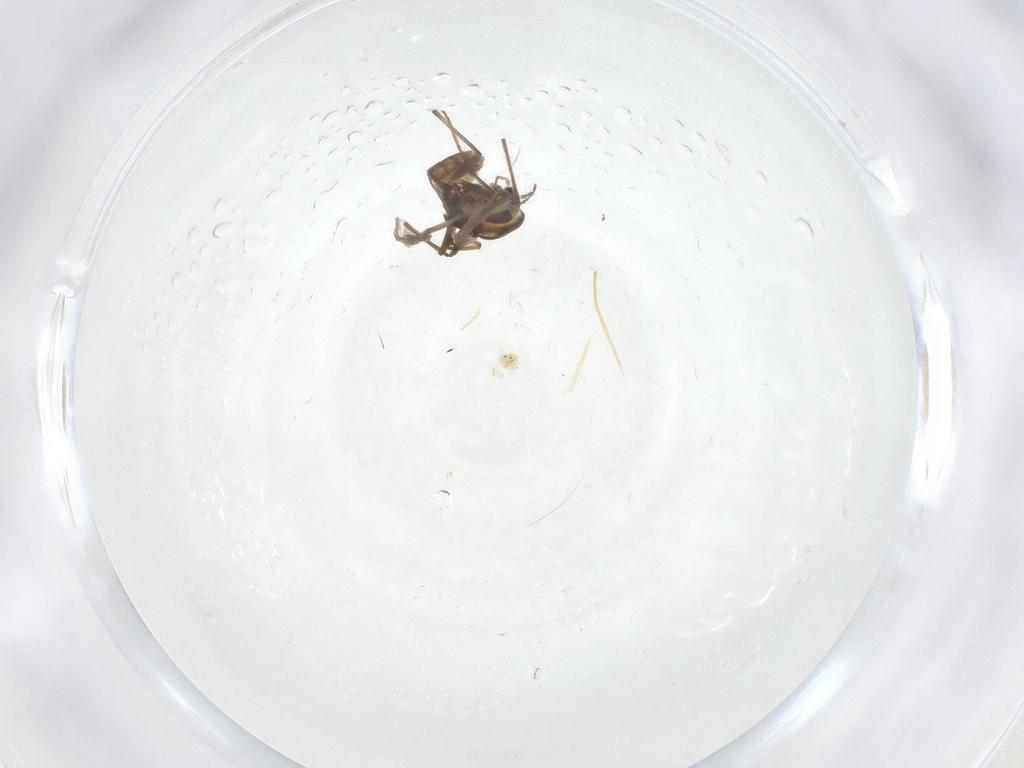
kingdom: Animalia
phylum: Arthropoda
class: Insecta
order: Diptera
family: Chironomidae
